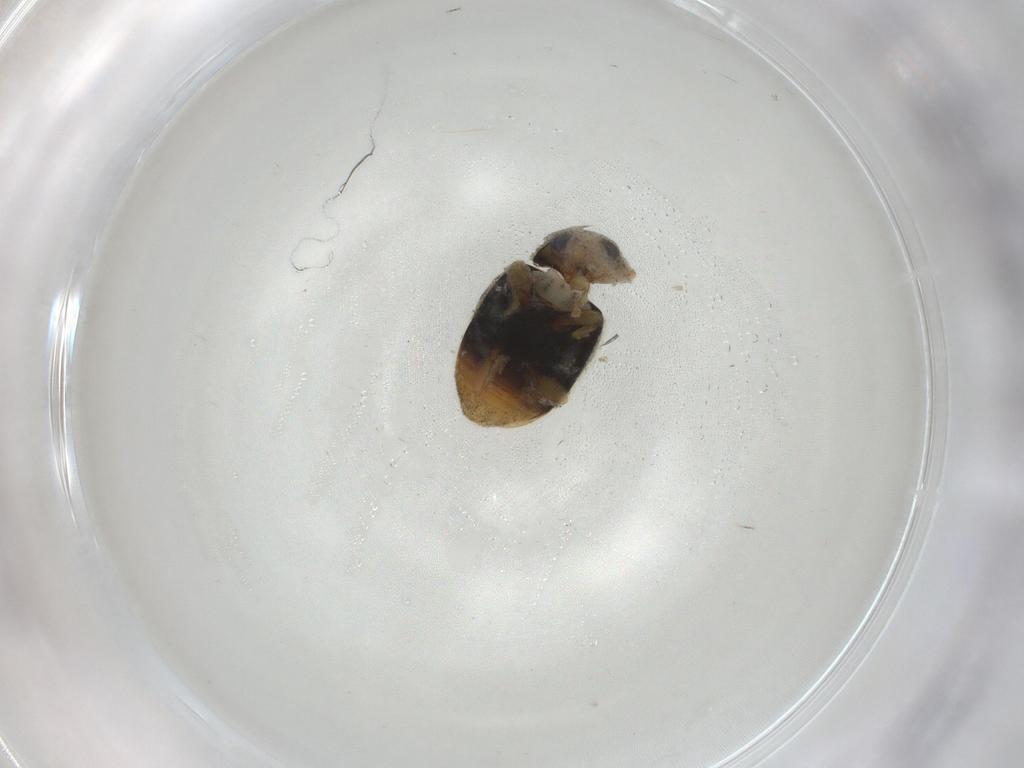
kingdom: Animalia
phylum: Arthropoda
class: Insecta
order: Coleoptera
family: Coccinellidae
